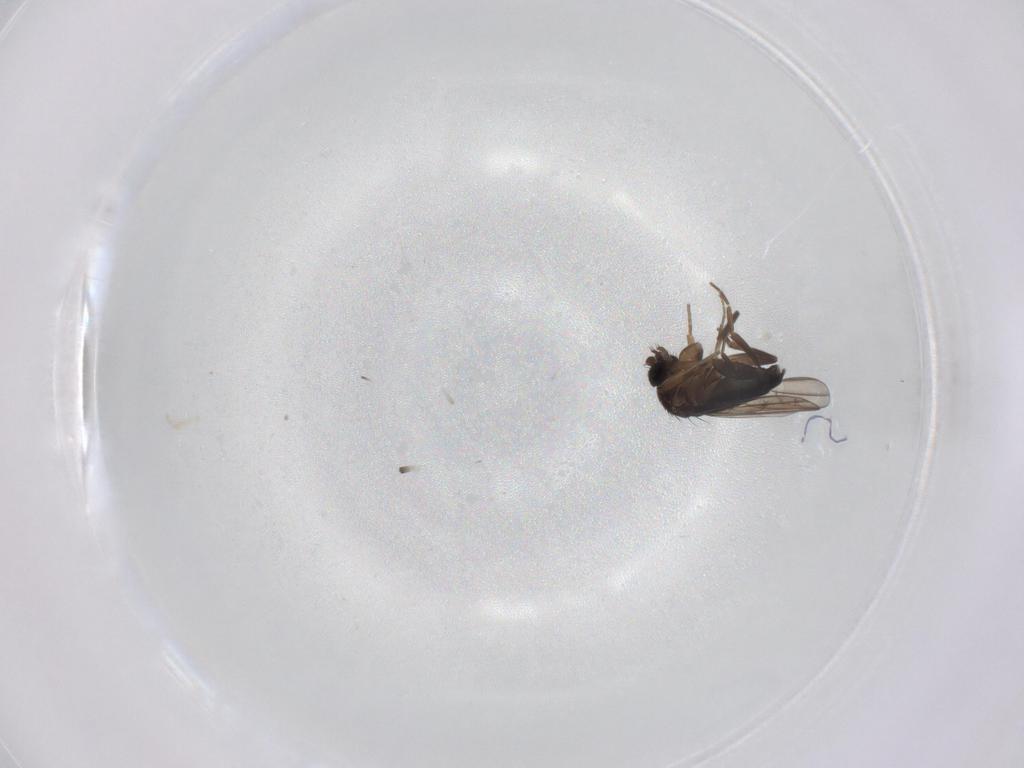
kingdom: Animalia
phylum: Arthropoda
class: Insecta
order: Diptera
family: Phoridae
